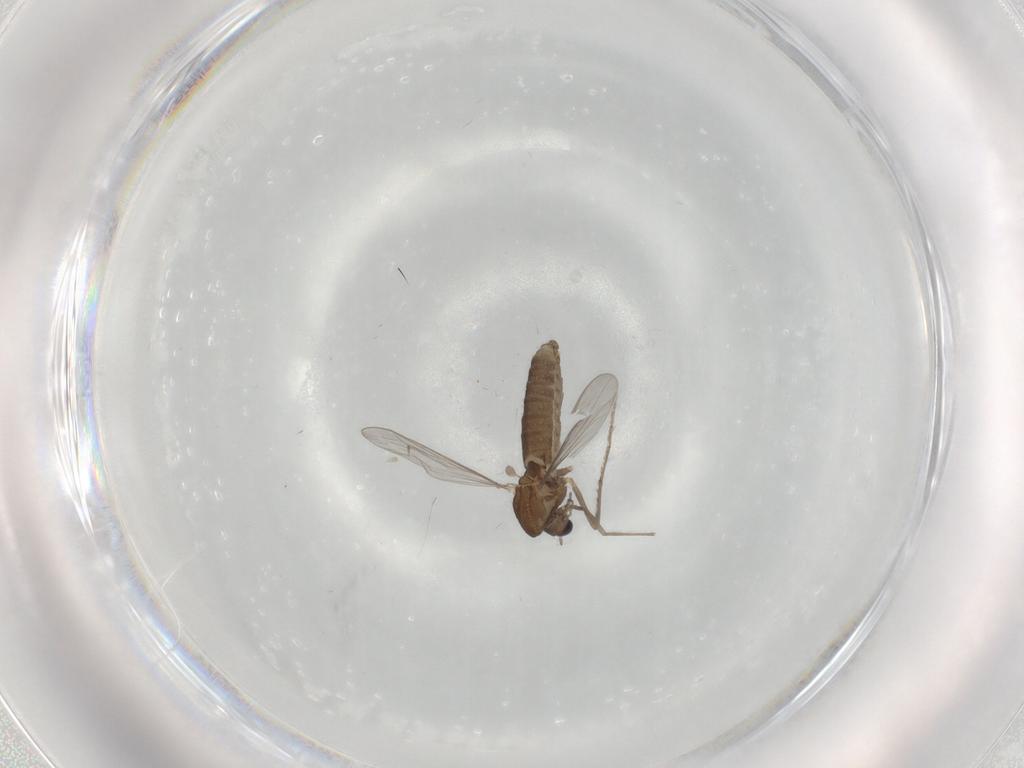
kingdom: Animalia
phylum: Arthropoda
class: Insecta
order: Diptera
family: Chironomidae
